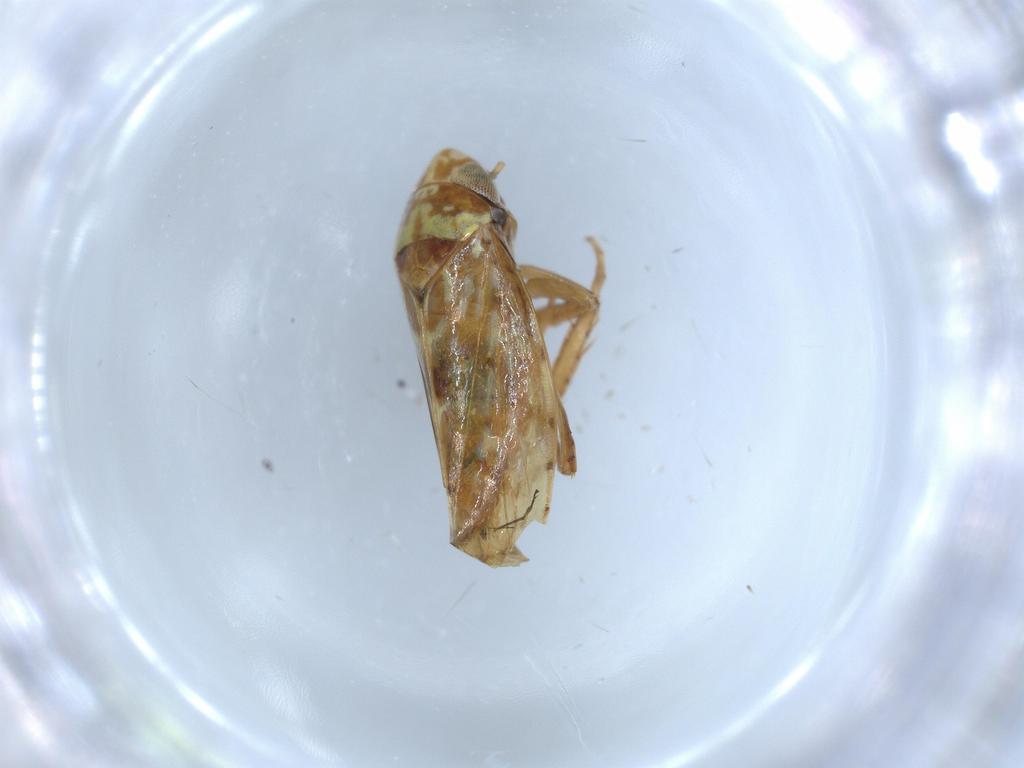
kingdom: Animalia
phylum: Arthropoda
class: Insecta
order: Hemiptera
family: Cicadellidae
